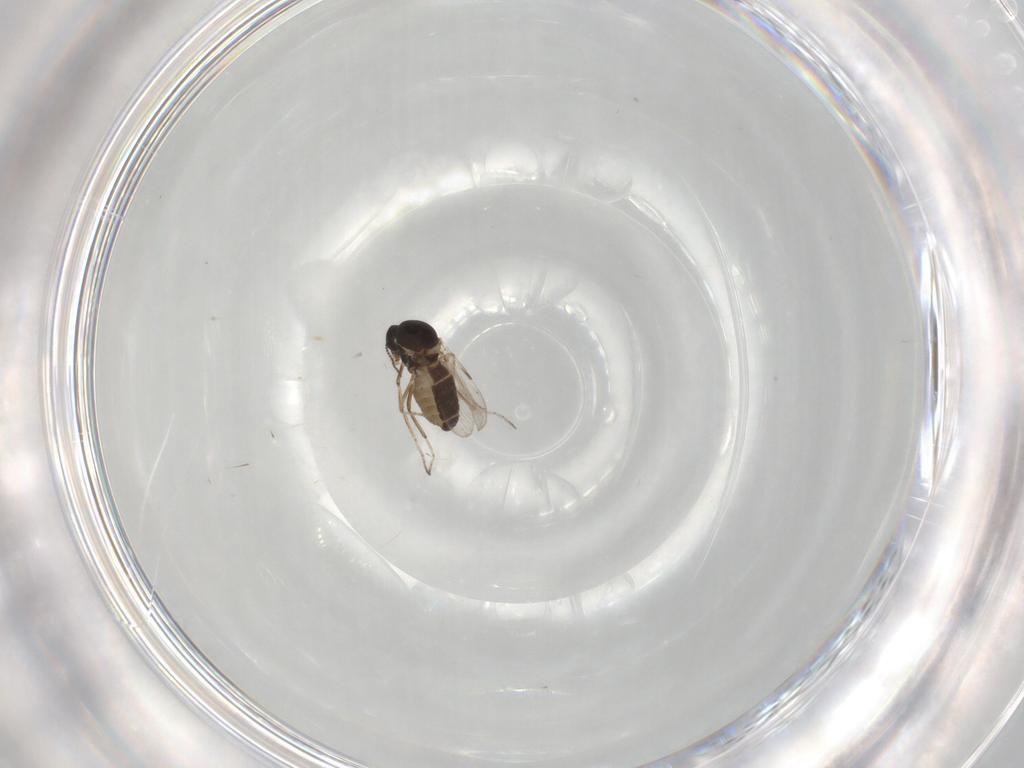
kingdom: Animalia
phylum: Arthropoda
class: Insecta
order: Diptera
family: Ceratopogonidae
